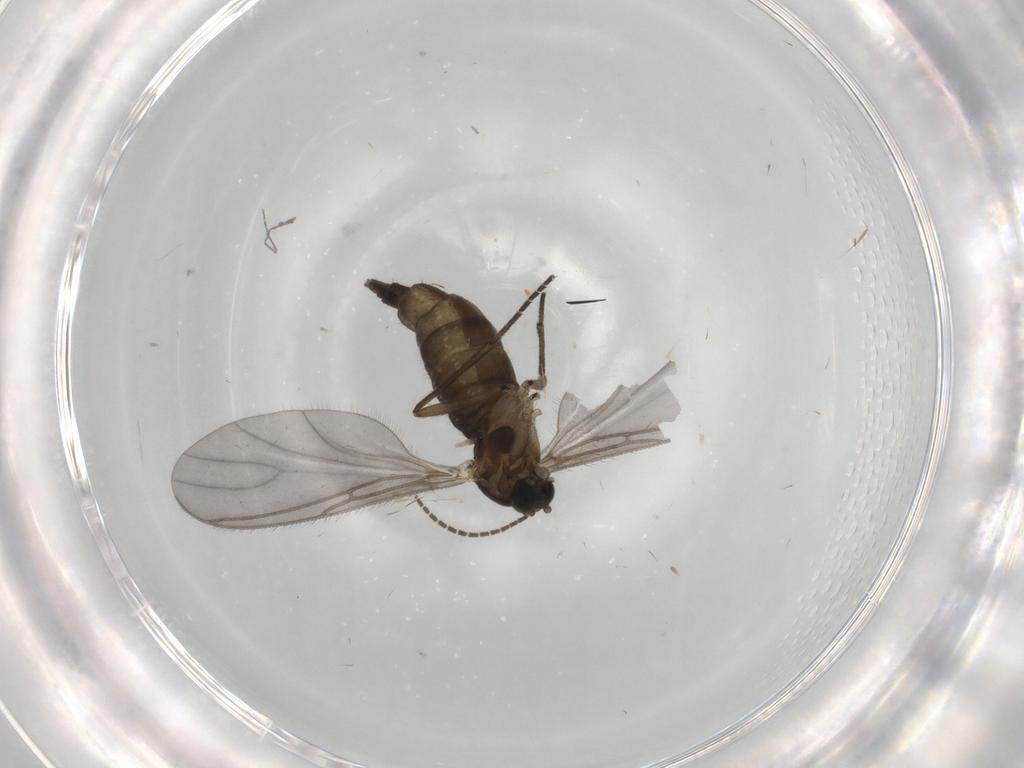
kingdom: Animalia
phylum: Arthropoda
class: Insecta
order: Diptera
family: Sciaridae
